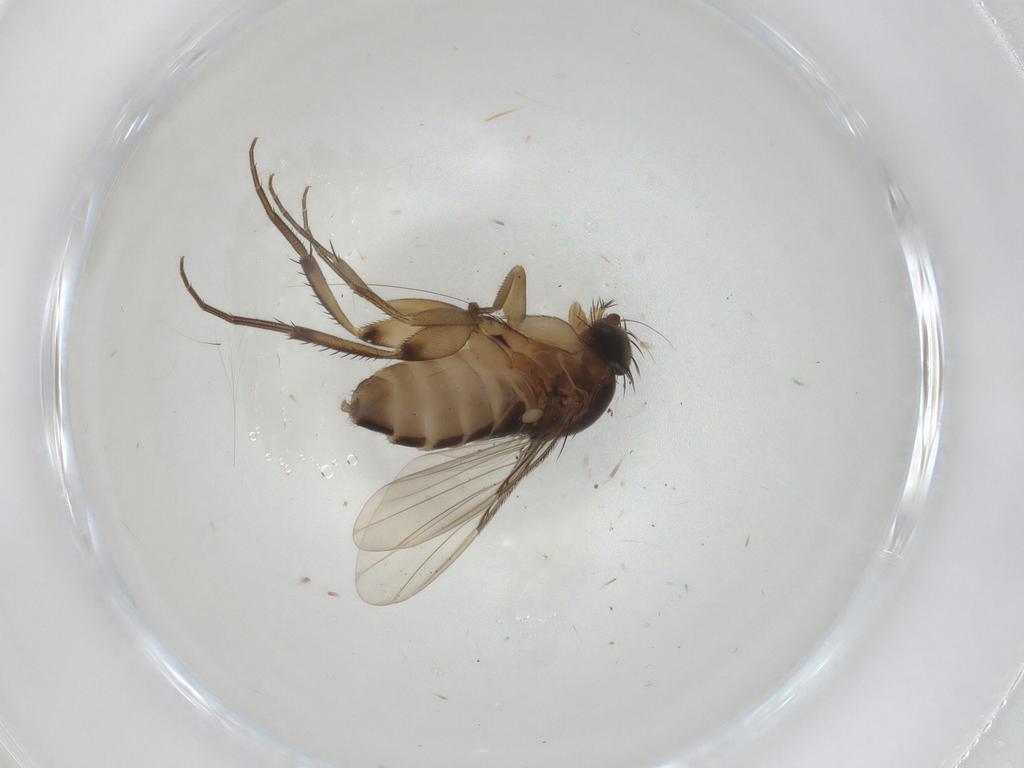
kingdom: Animalia
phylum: Arthropoda
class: Insecta
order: Diptera
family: Phoridae
